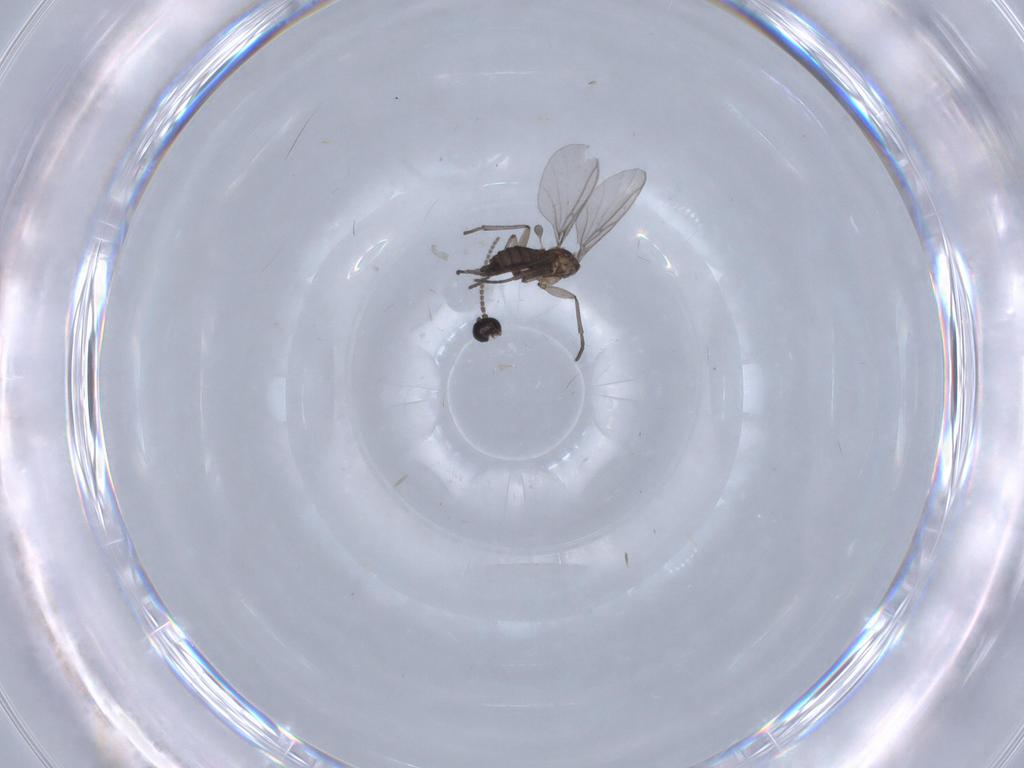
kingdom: Animalia
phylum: Arthropoda
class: Insecta
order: Diptera
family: Cecidomyiidae
